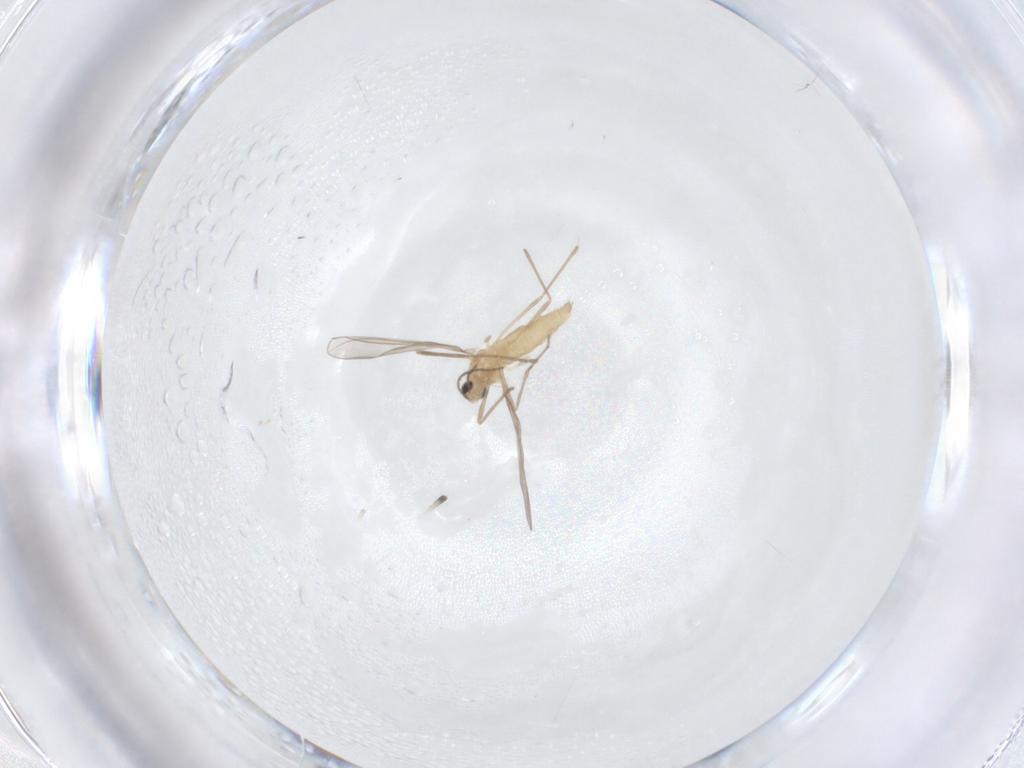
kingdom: Animalia
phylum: Arthropoda
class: Insecta
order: Diptera
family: Cecidomyiidae
